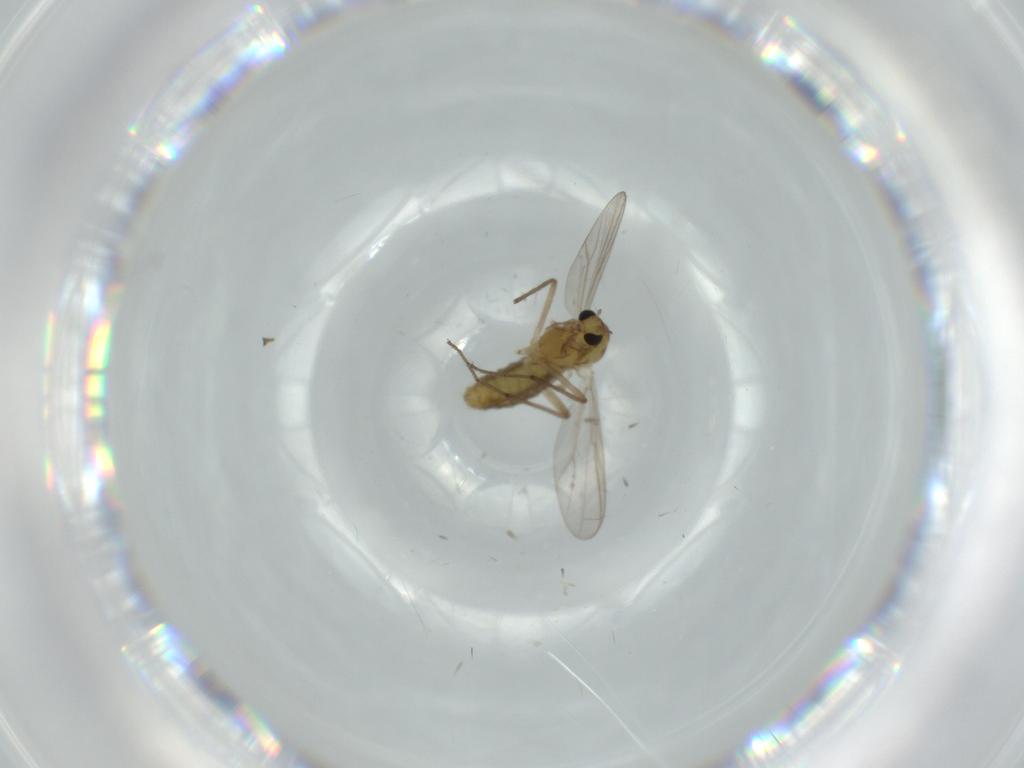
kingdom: Animalia
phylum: Arthropoda
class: Insecta
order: Diptera
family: Chironomidae
